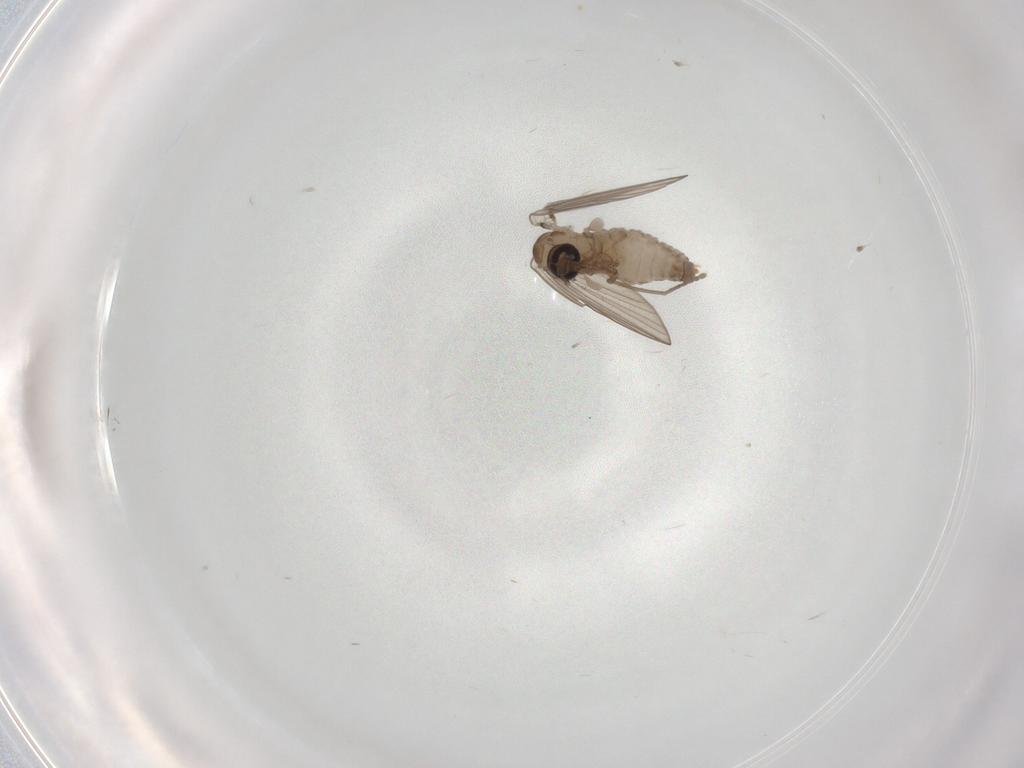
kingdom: Animalia
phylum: Arthropoda
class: Insecta
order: Diptera
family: Psychodidae
